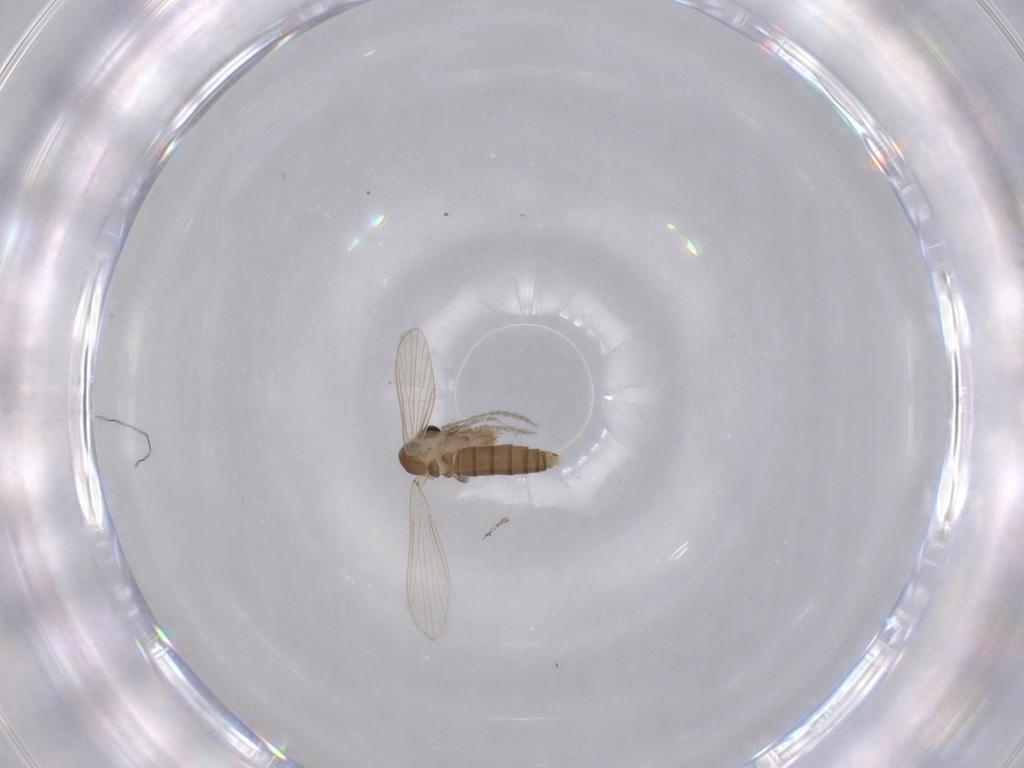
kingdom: Animalia
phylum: Arthropoda
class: Insecta
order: Diptera
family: Psychodidae
